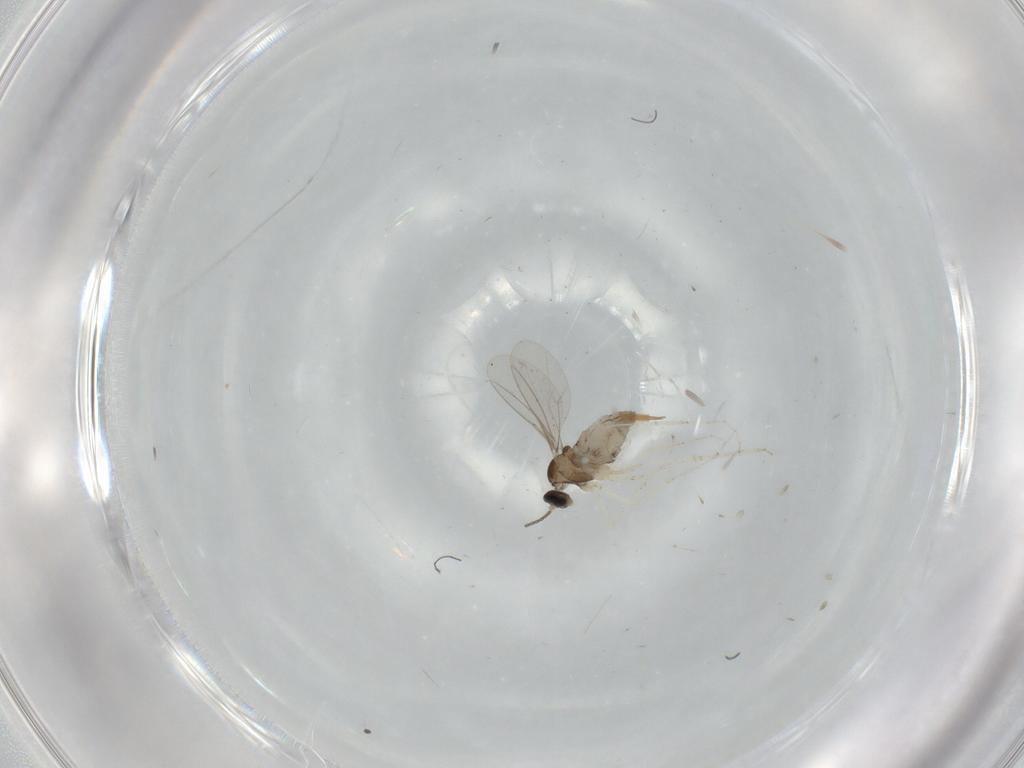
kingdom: Animalia
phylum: Arthropoda
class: Insecta
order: Diptera
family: Cecidomyiidae
